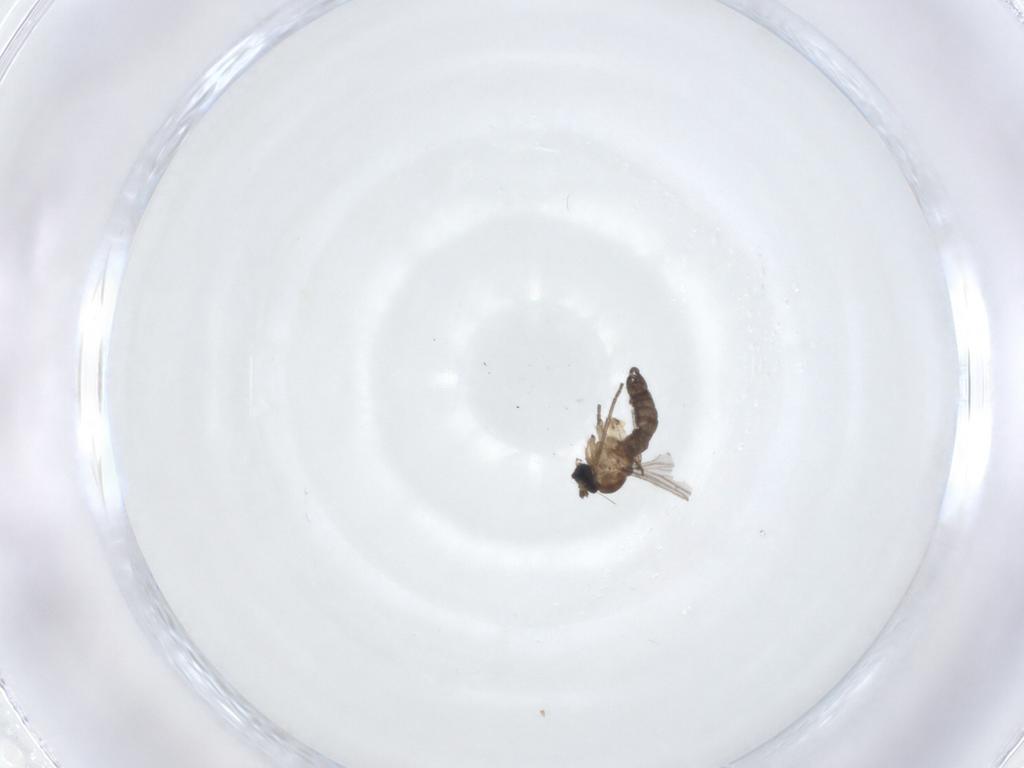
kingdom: Animalia
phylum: Arthropoda
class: Insecta
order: Diptera
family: Sciaridae
